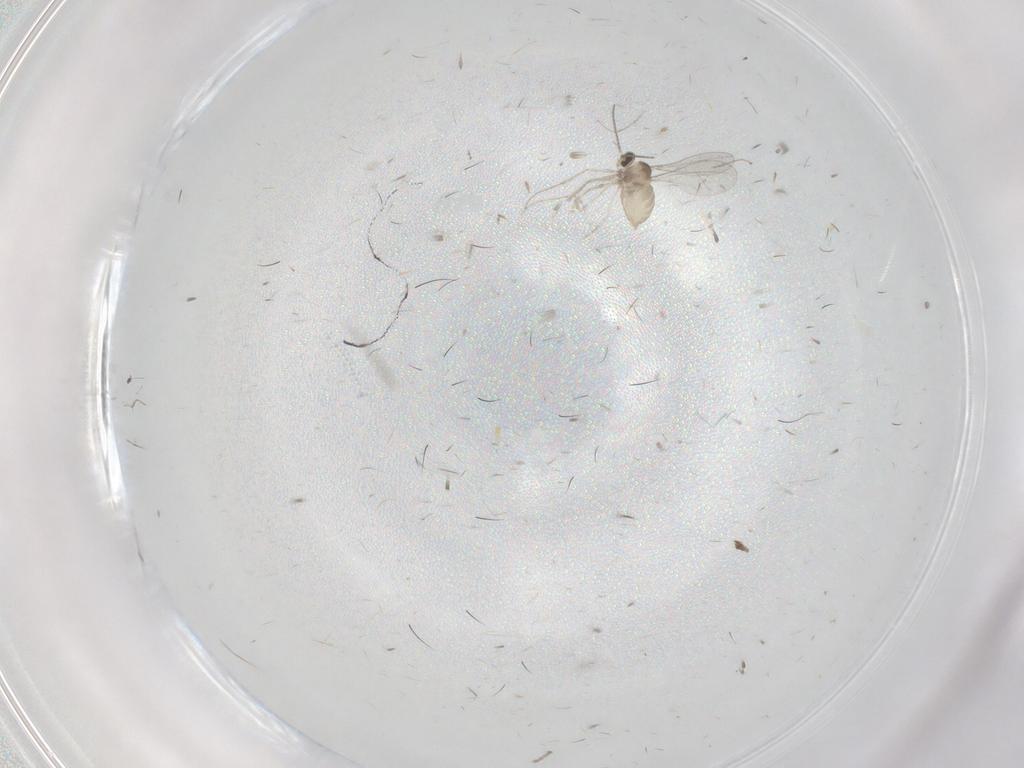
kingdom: Animalia
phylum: Arthropoda
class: Insecta
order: Diptera
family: Cecidomyiidae
